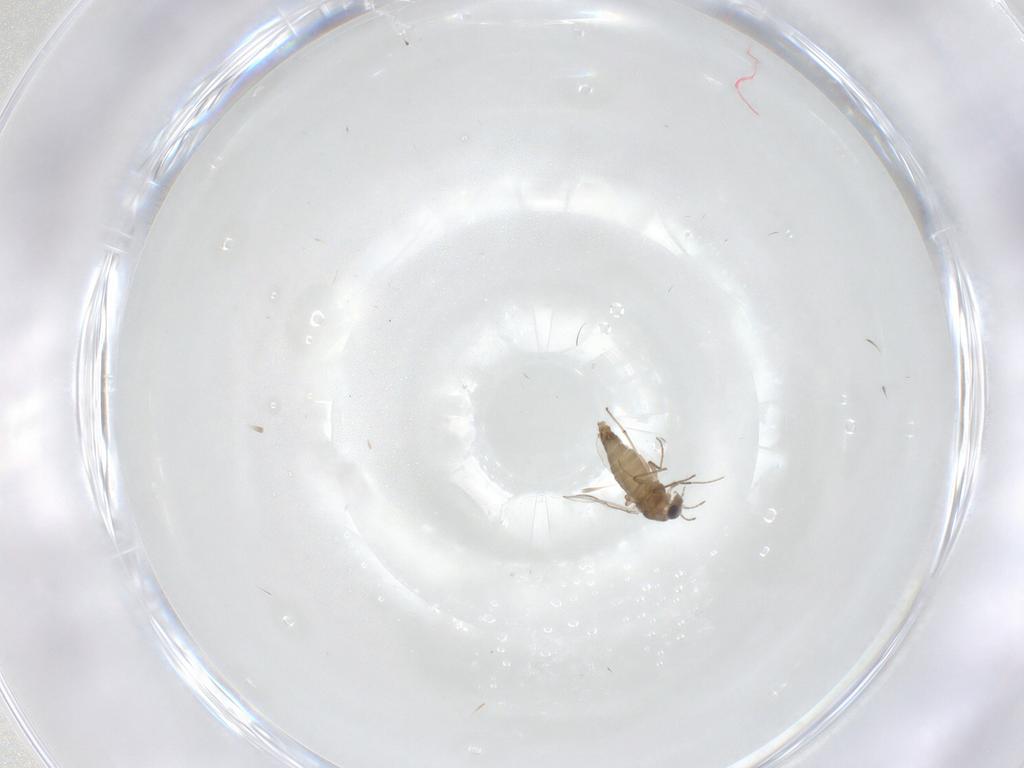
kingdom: Animalia
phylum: Arthropoda
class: Insecta
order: Diptera
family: Chironomidae
